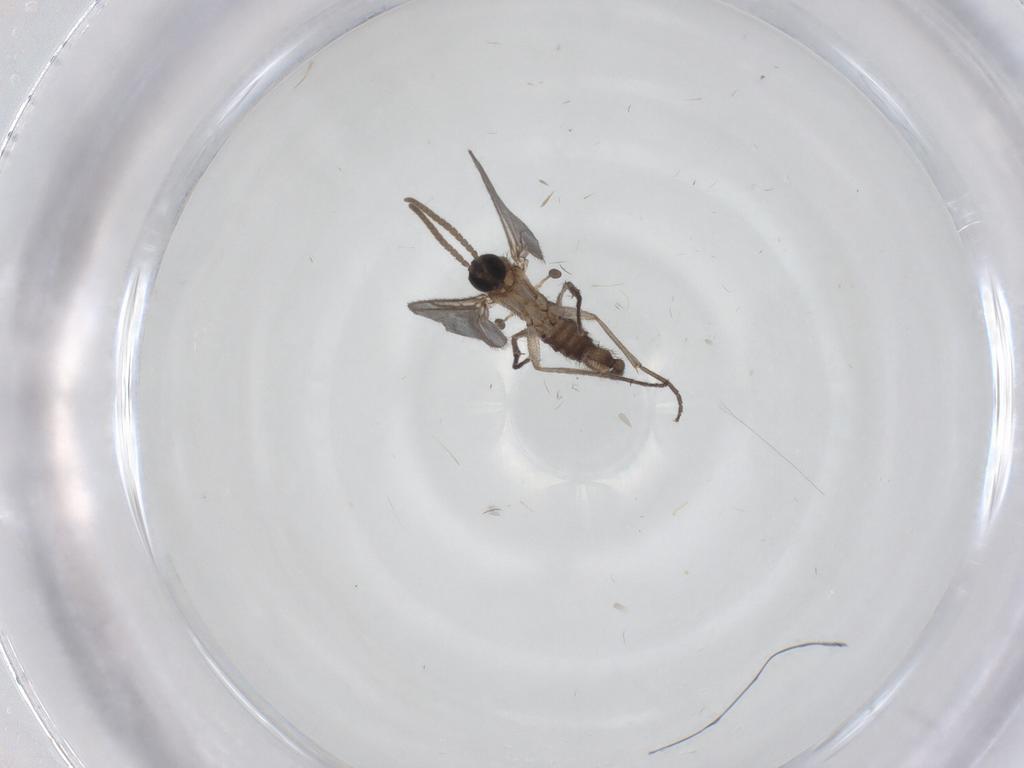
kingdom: Animalia
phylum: Arthropoda
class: Insecta
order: Diptera
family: Cecidomyiidae
